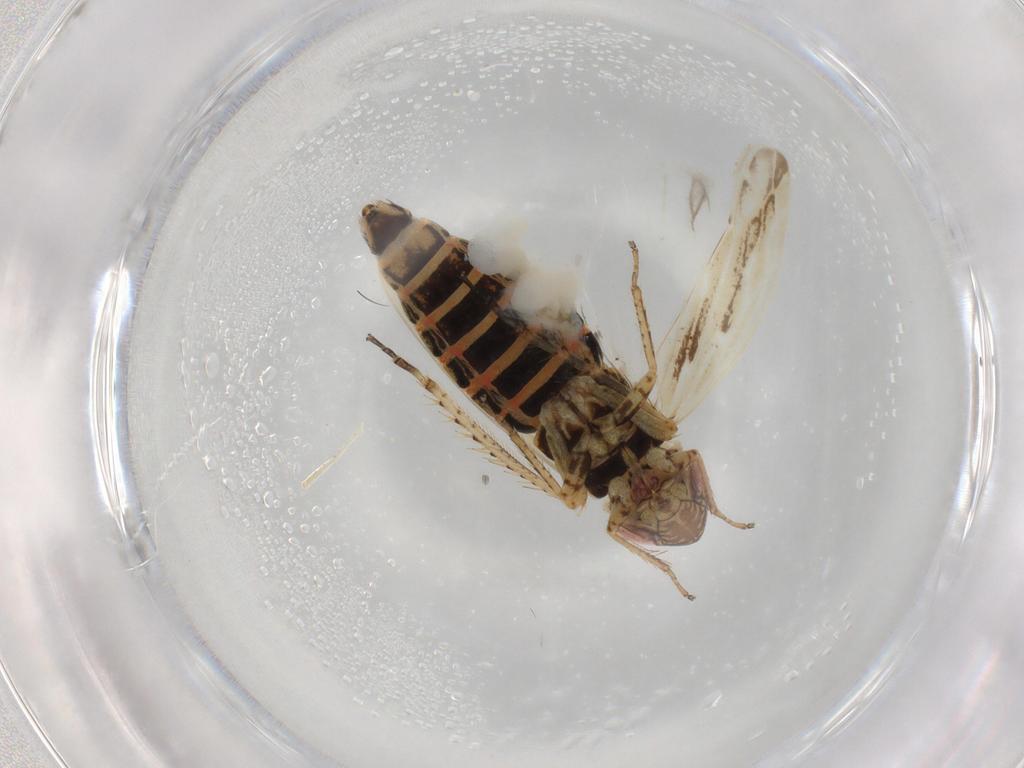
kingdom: Animalia
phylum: Arthropoda
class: Insecta
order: Hemiptera
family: Cicadellidae
